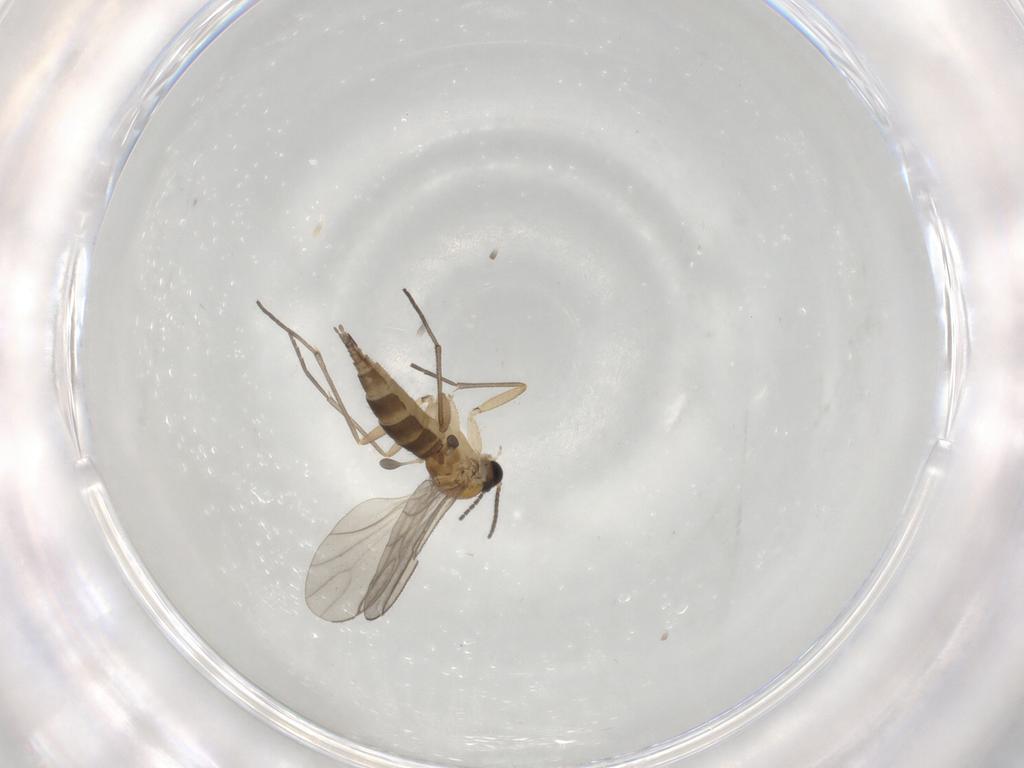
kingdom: Animalia
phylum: Arthropoda
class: Insecta
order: Diptera
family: Sciaridae
